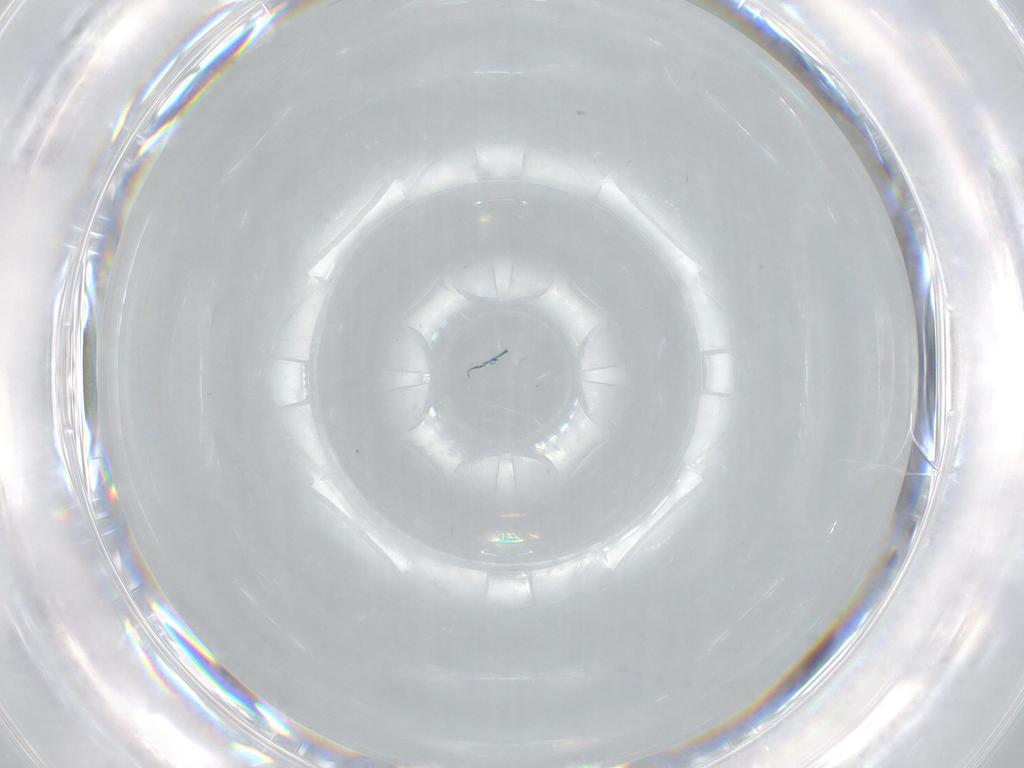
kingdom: Animalia
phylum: Arthropoda
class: Insecta
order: Lepidoptera
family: Psychidae
